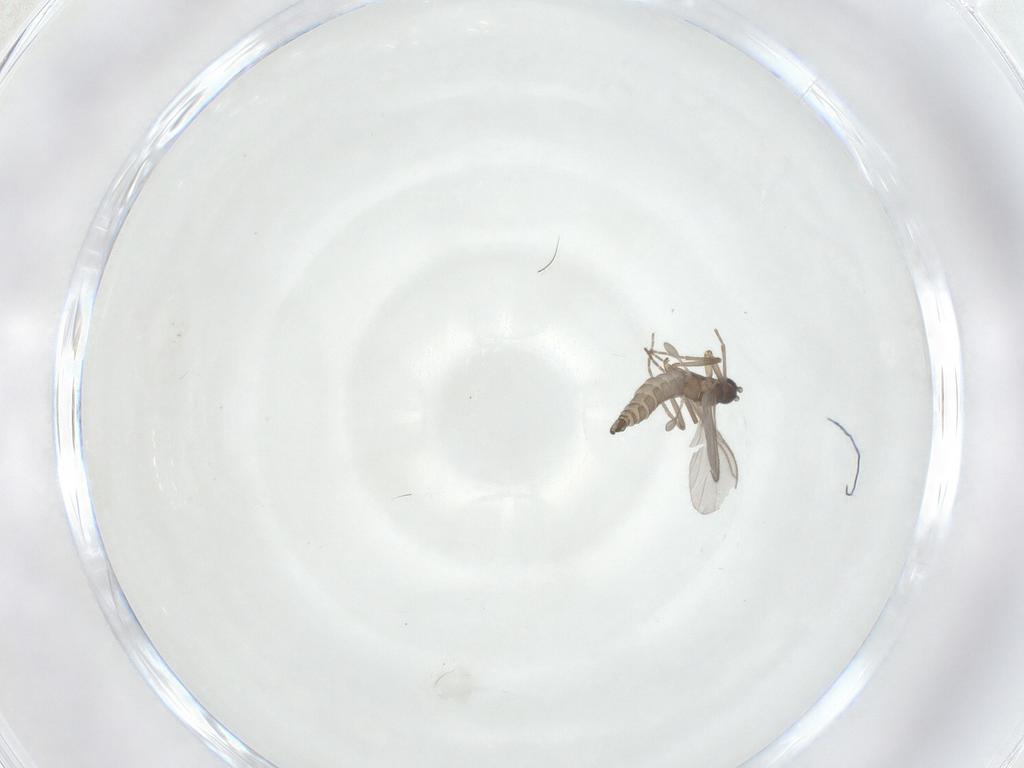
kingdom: Animalia
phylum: Arthropoda
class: Insecta
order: Diptera
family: Sciaridae
